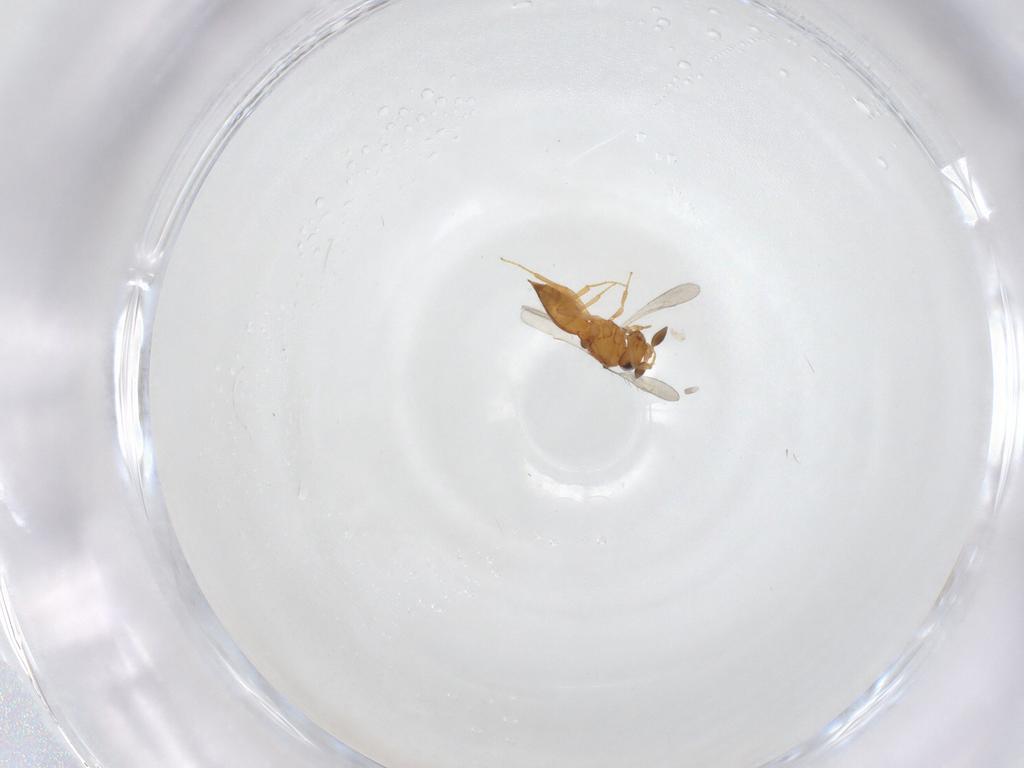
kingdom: Animalia
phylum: Arthropoda
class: Insecta
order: Hymenoptera
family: Scelionidae
